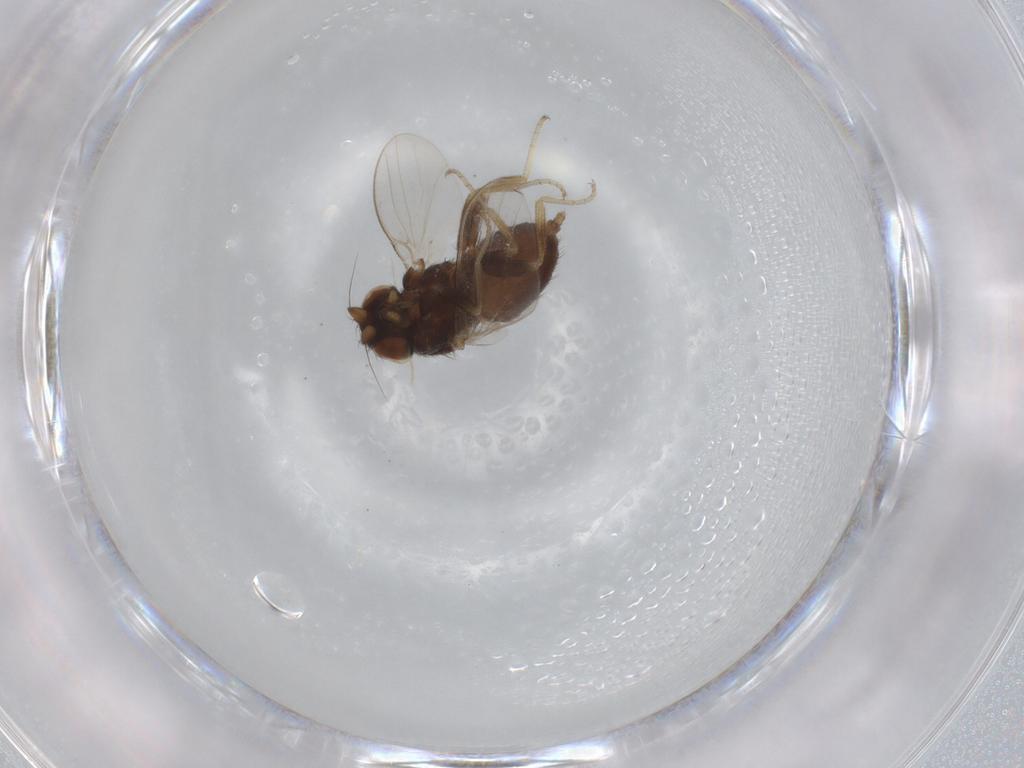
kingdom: Animalia
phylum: Arthropoda
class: Insecta
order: Diptera
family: Milichiidae
